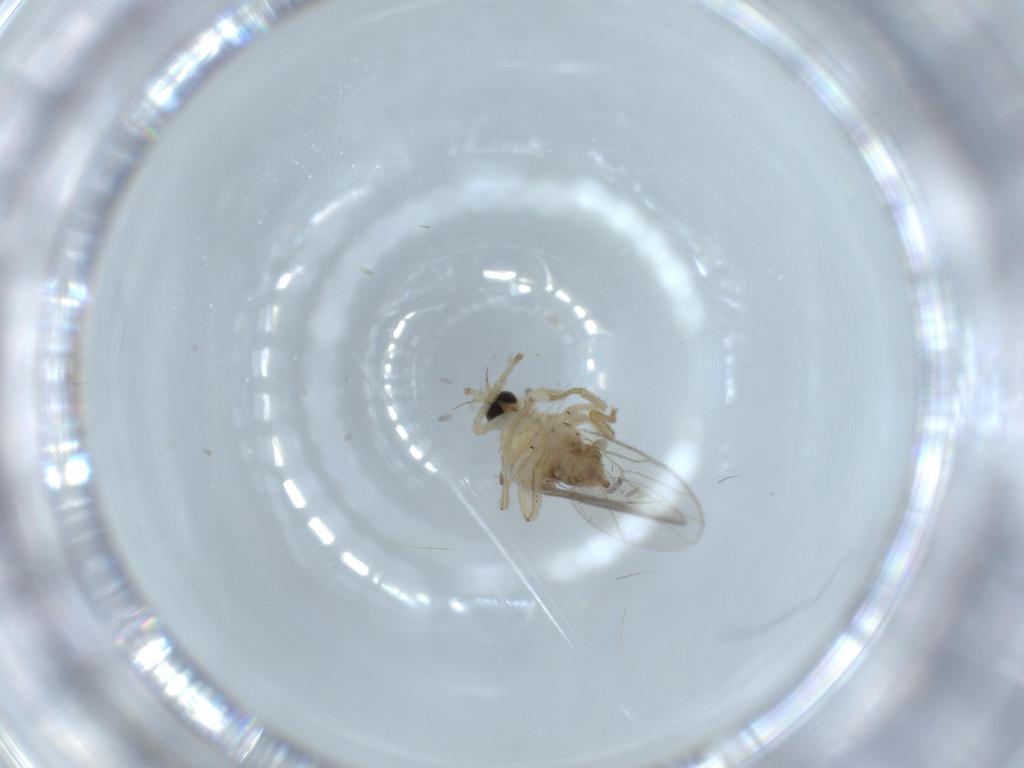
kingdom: Animalia
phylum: Arthropoda
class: Insecta
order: Diptera
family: Hybotidae
